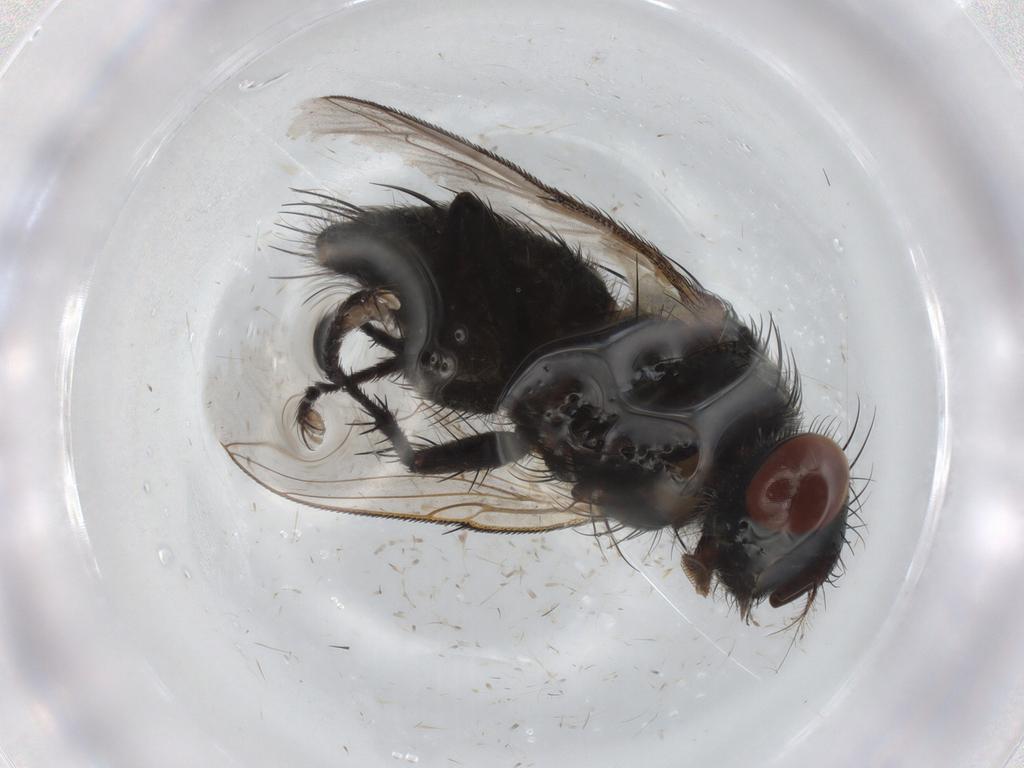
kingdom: Animalia
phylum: Arthropoda
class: Insecta
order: Diptera
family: Sarcophagidae
